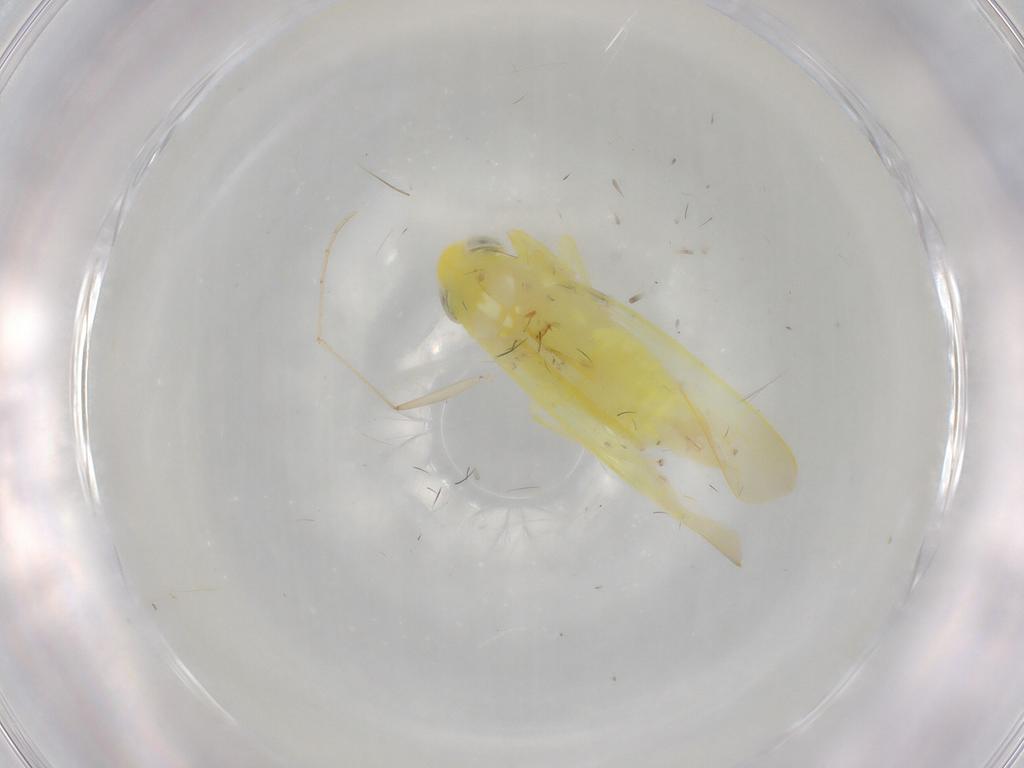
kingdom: Animalia
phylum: Arthropoda
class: Insecta
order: Hemiptera
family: Cicadellidae
